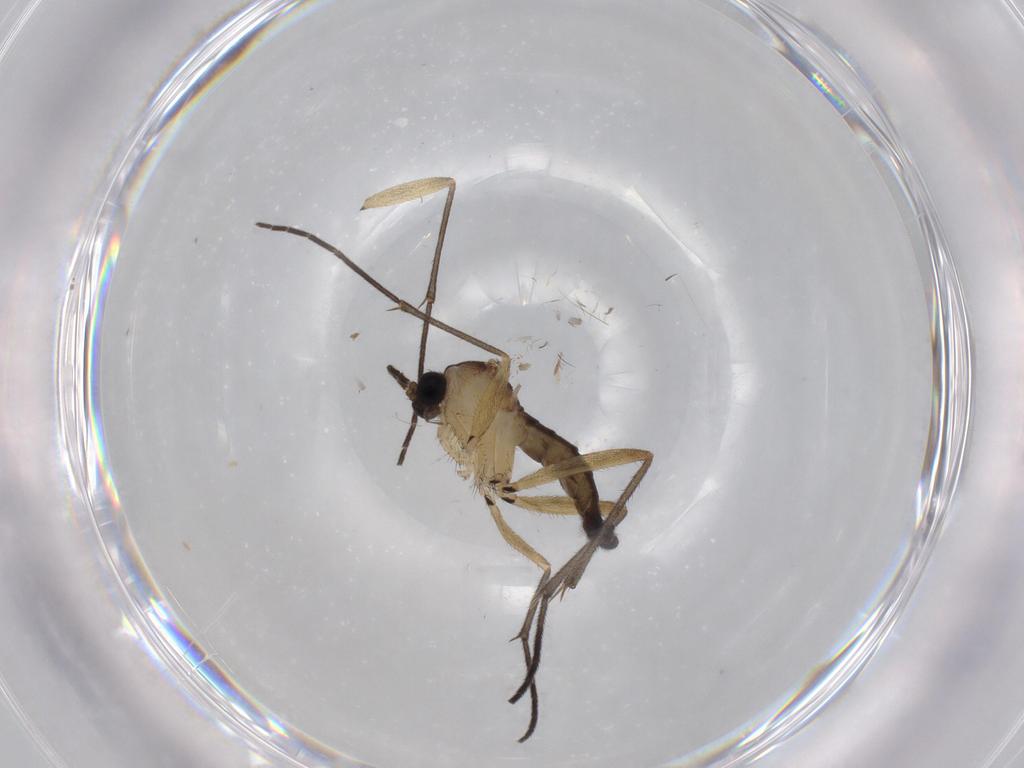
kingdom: Animalia
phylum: Arthropoda
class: Insecta
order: Diptera
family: Sciaridae
